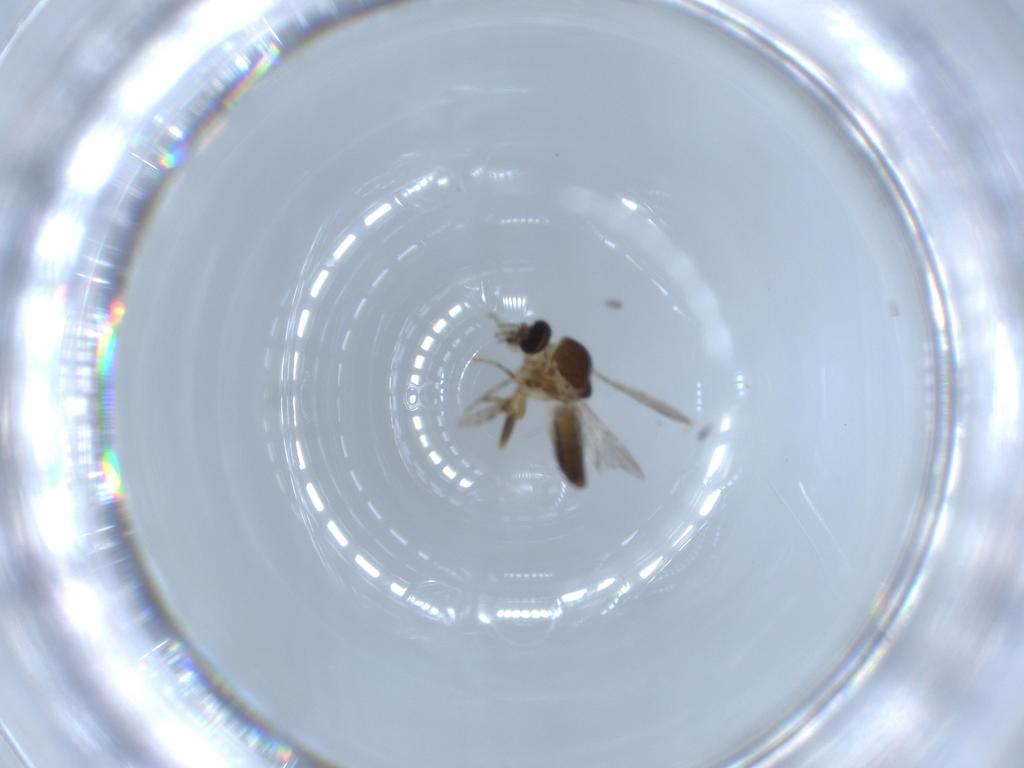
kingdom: Animalia
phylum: Arthropoda
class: Insecta
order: Diptera
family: Ceratopogonidae
